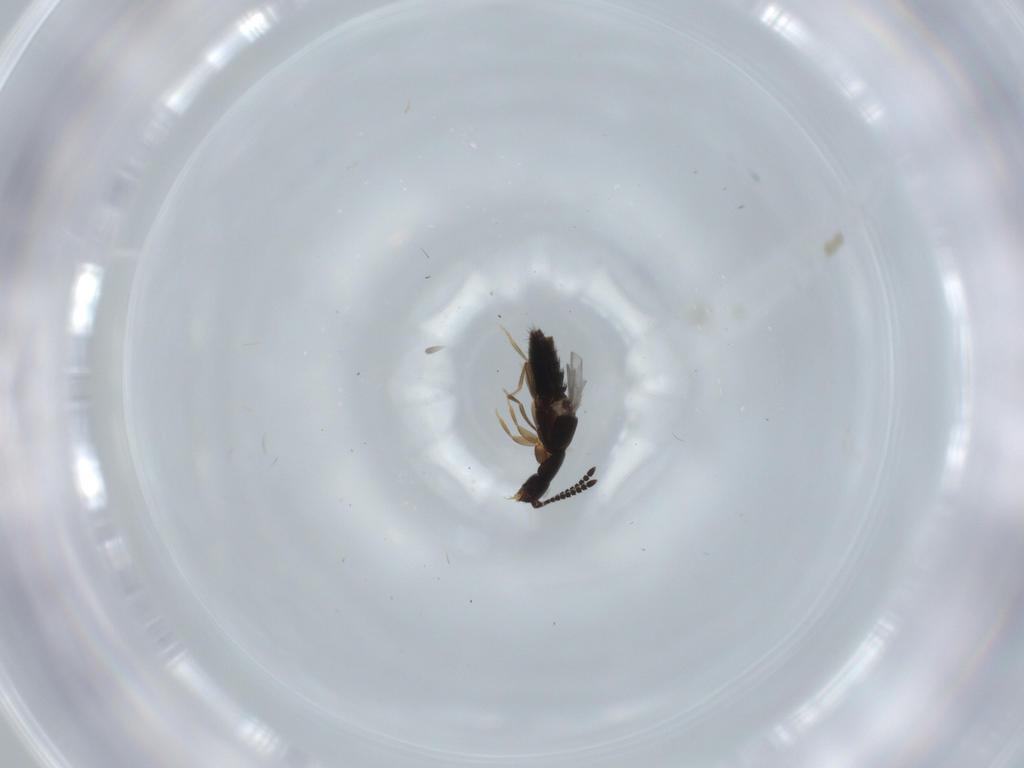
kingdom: Animalia
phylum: Arthropoda
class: Insecta
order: Coleoptera
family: Staphylinidae
